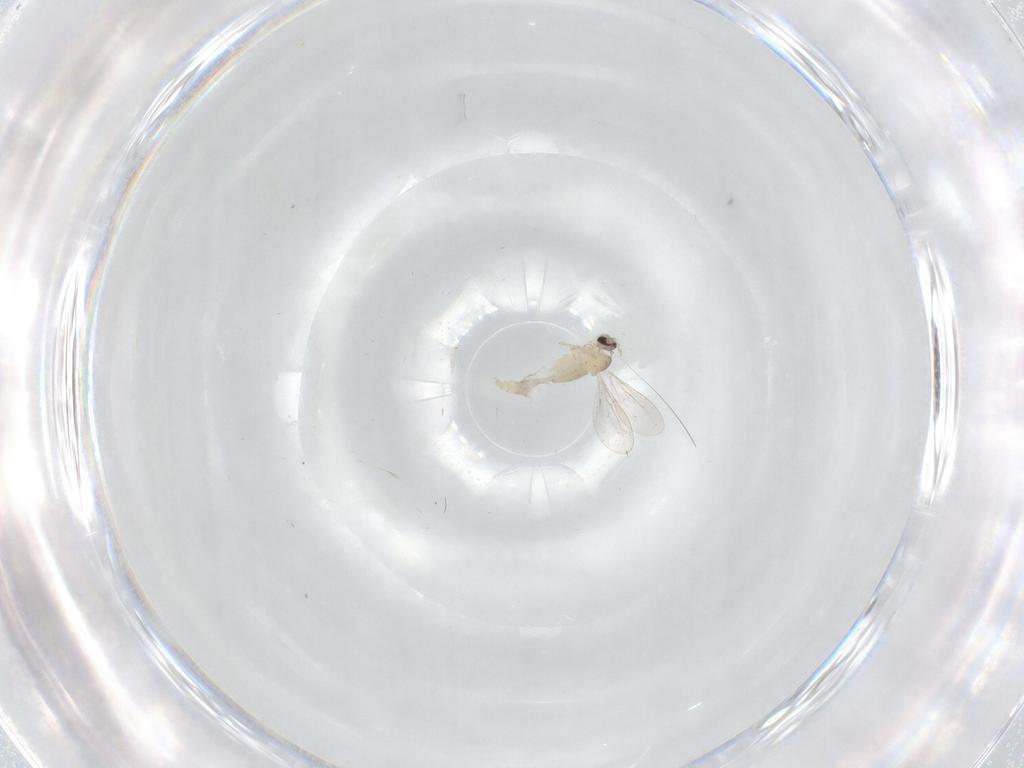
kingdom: Animalia
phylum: Arthropoda
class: Insecta
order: Diptera
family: Cecidomyiidae
